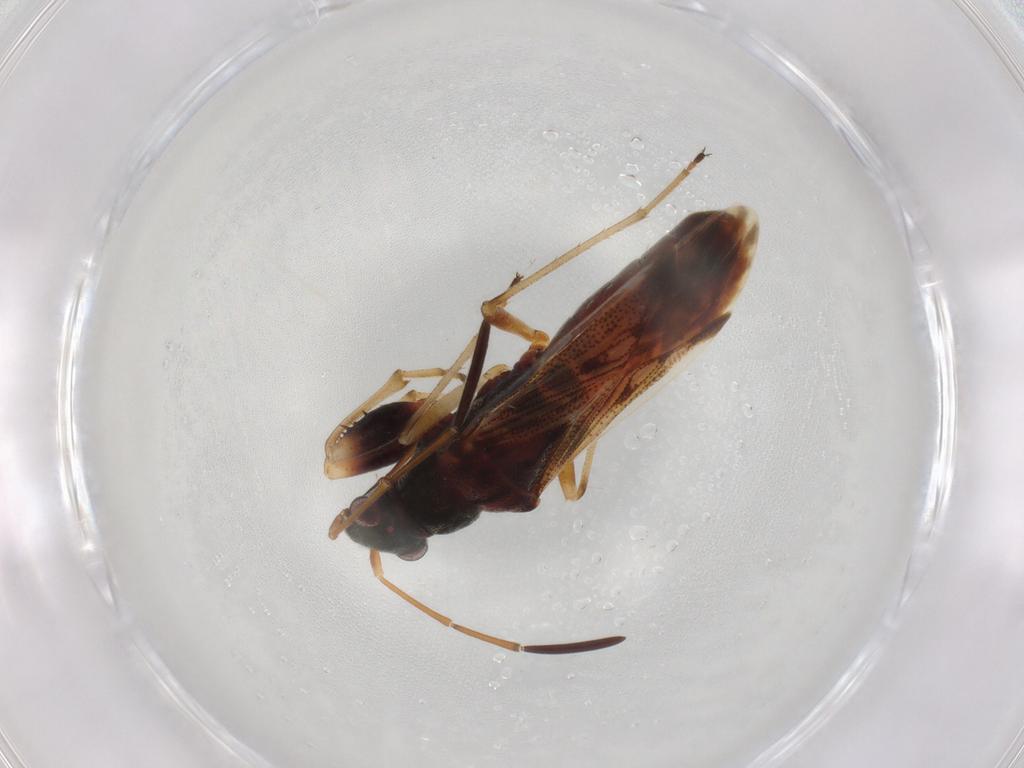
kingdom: Animalia
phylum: Arthropoda
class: Insecta
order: Hemiptera
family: Rhyparochromidae
